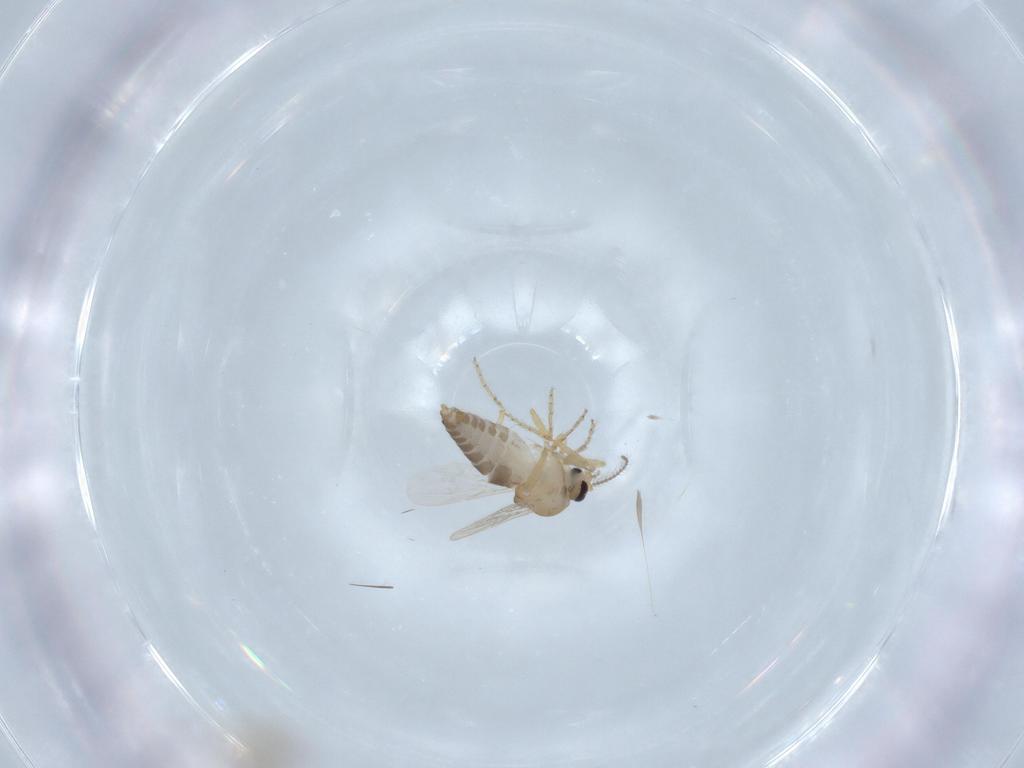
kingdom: Animalia
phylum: Arthropoda
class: Insecta
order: Diptera
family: Ceratopogonidae
